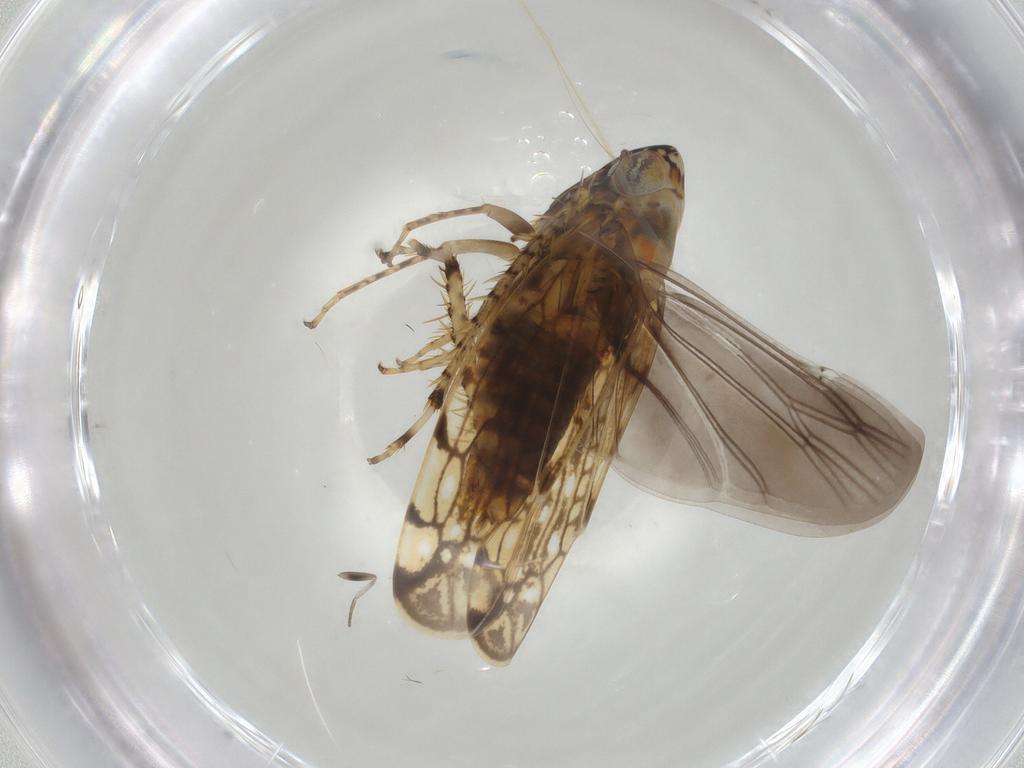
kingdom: Animalia
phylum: Arthropoda
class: Insecta
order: Hemiptera
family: Cicadellidae
